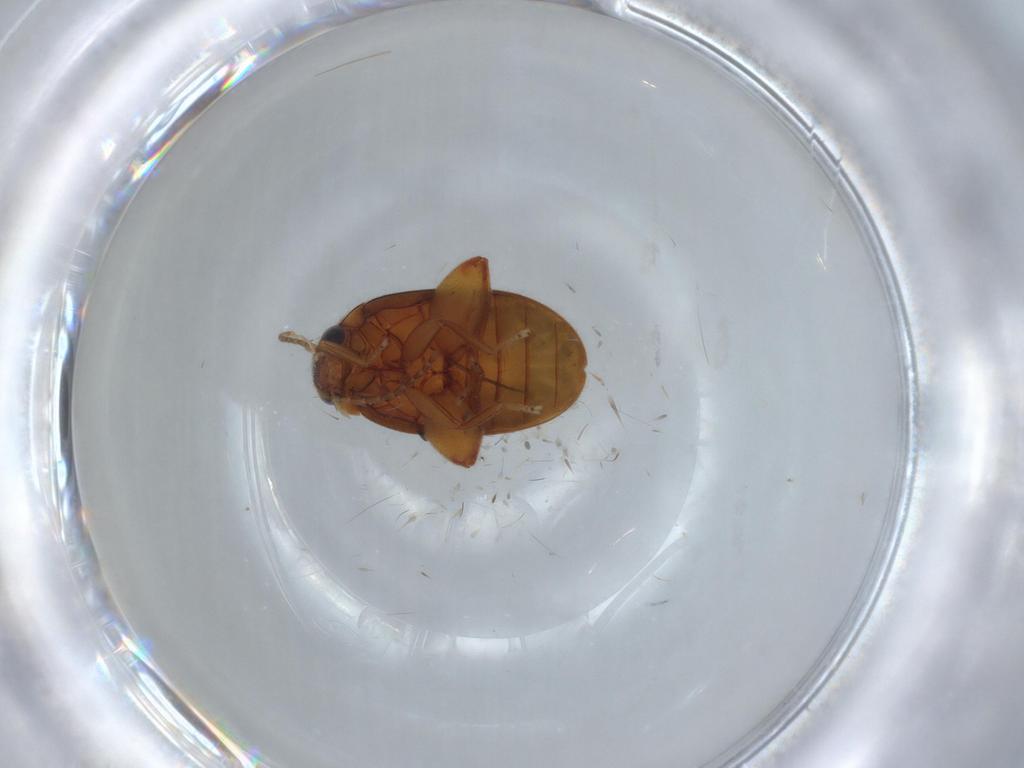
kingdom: Animalia
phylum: Arthropoda
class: Insecta
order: Coleoptera
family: Scirtidae
